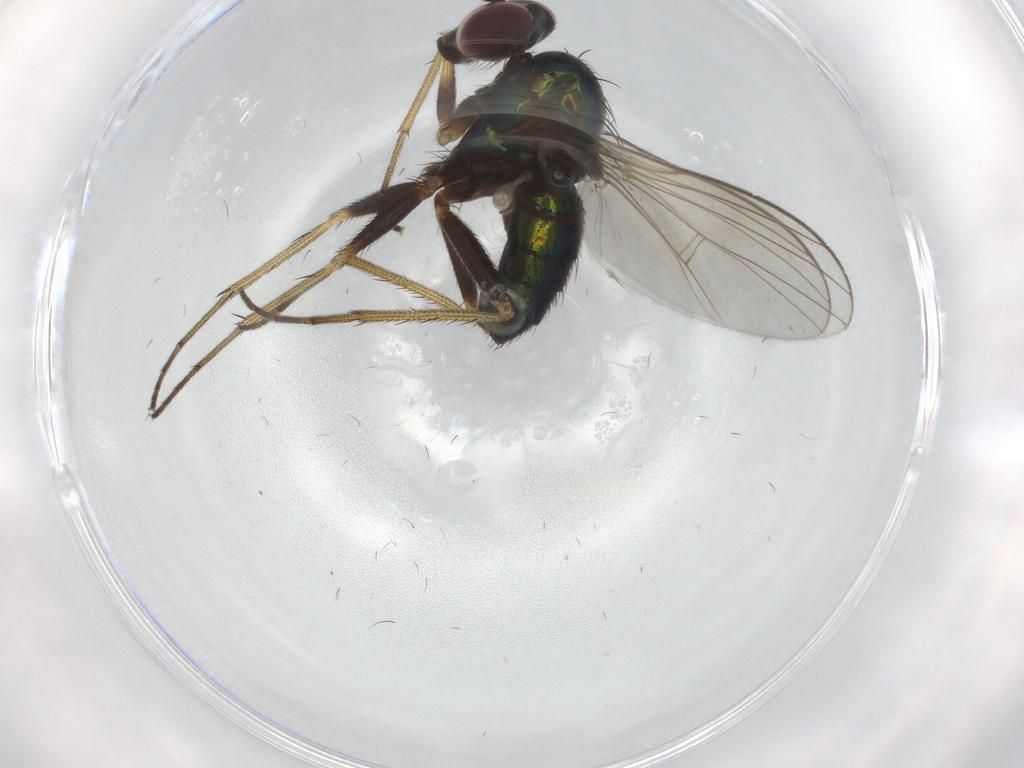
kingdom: Animalia
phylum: Arthropoda
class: Insecta
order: Diptera
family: Dolichopodidae
